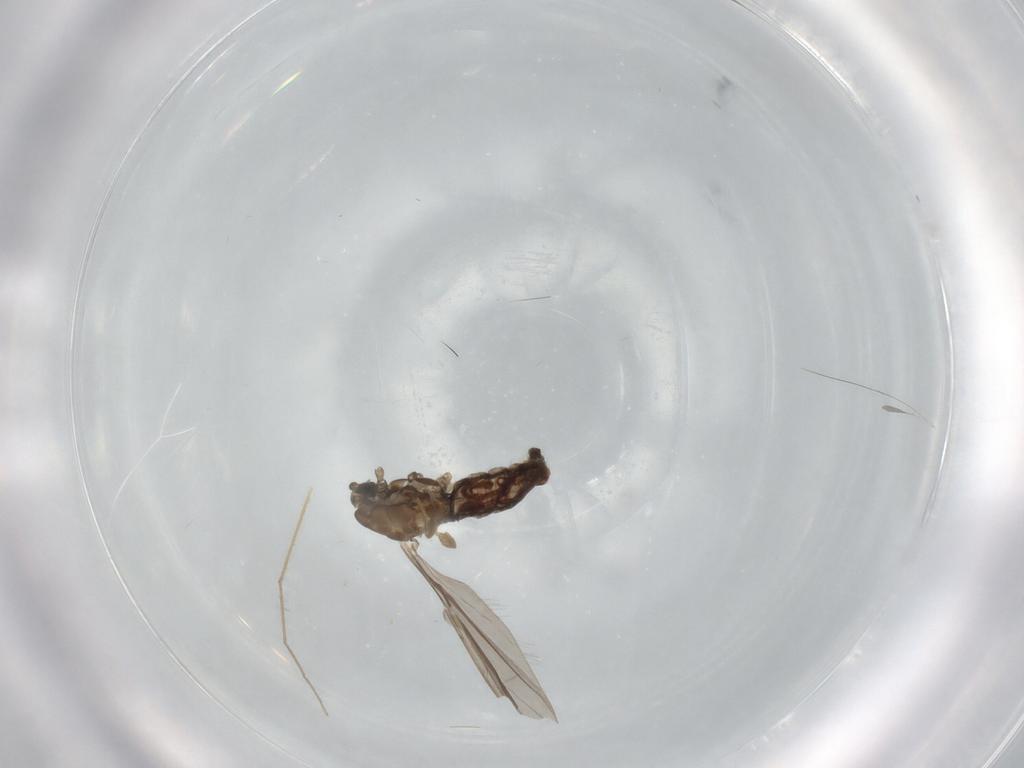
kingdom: Animalia
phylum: Arthropoda
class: Insecta
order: Diptera
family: Limoniidae
